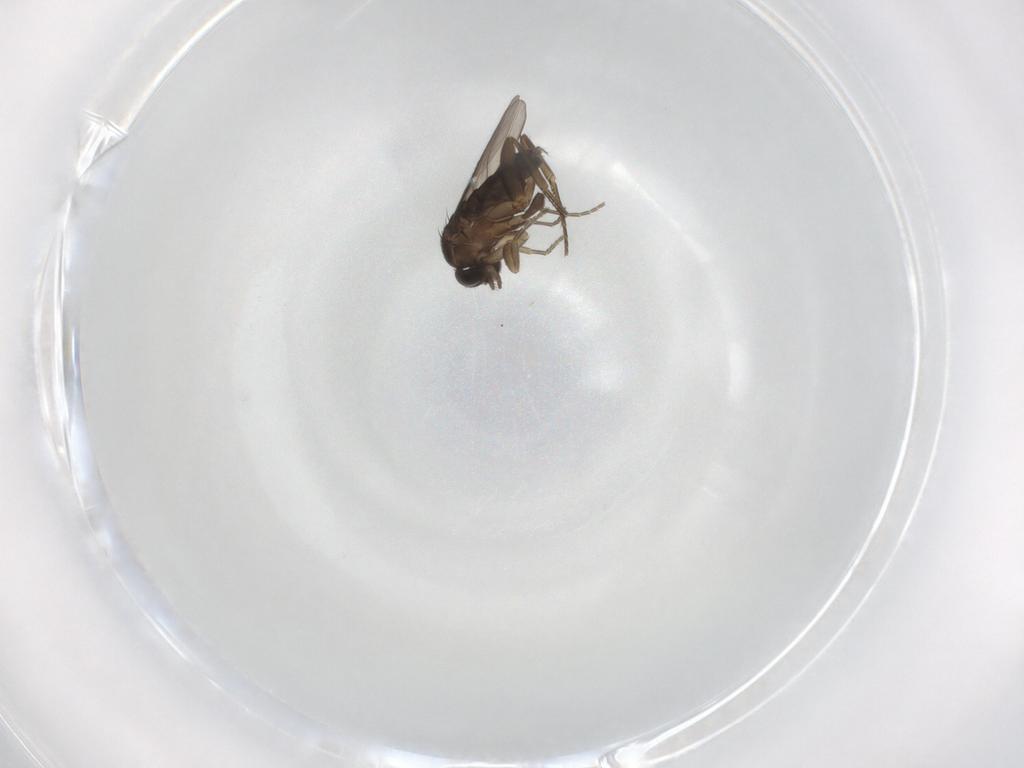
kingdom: Animalia
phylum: Arthropoda
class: Insecta
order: Diptera
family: Phoridae
